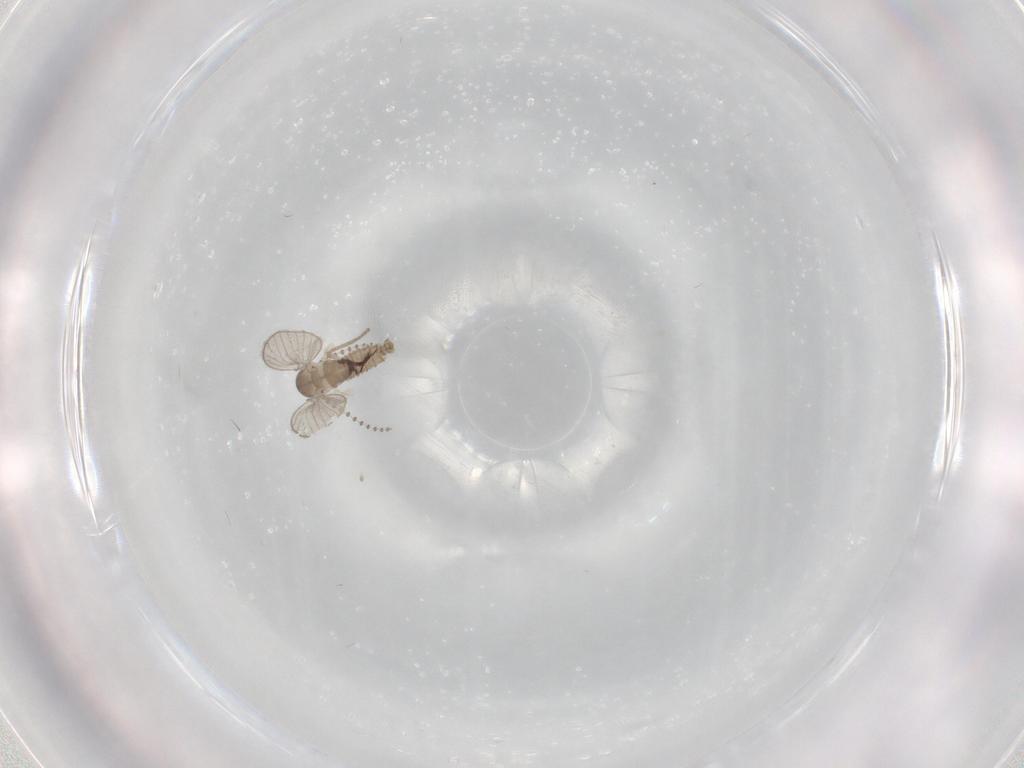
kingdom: Animalia
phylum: Arthropoda
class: Insecta
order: Diptera
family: Psychodidae
